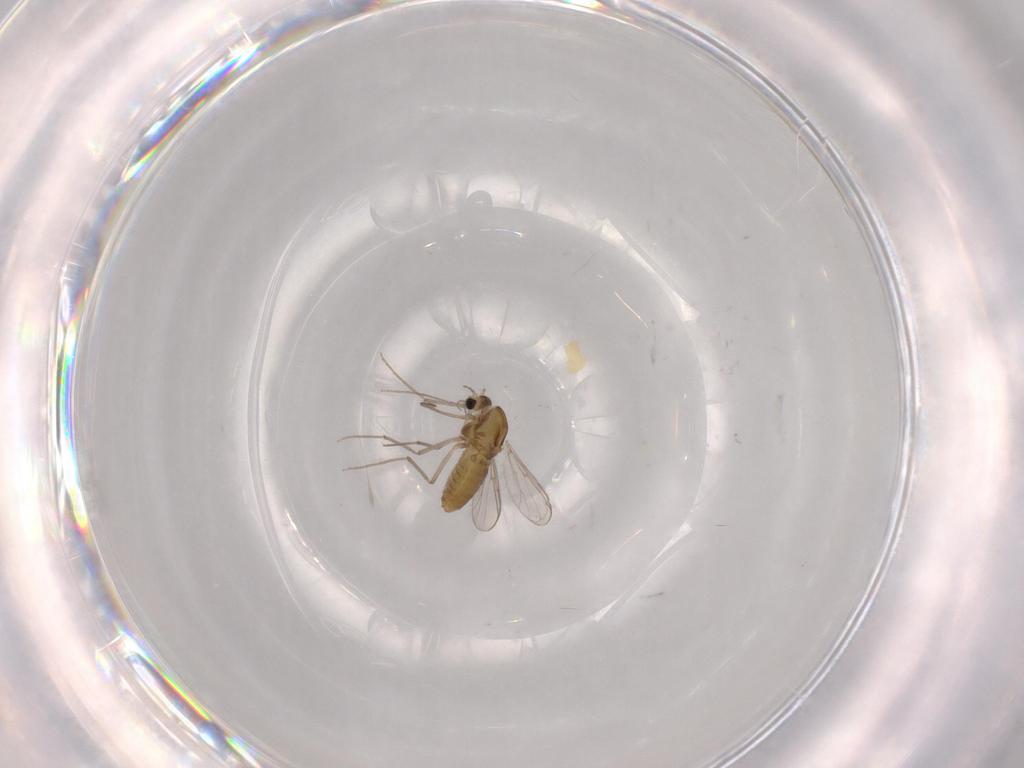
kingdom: Animalia
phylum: Arthropoda
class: Insecta
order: Diptera
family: Chironomidae
